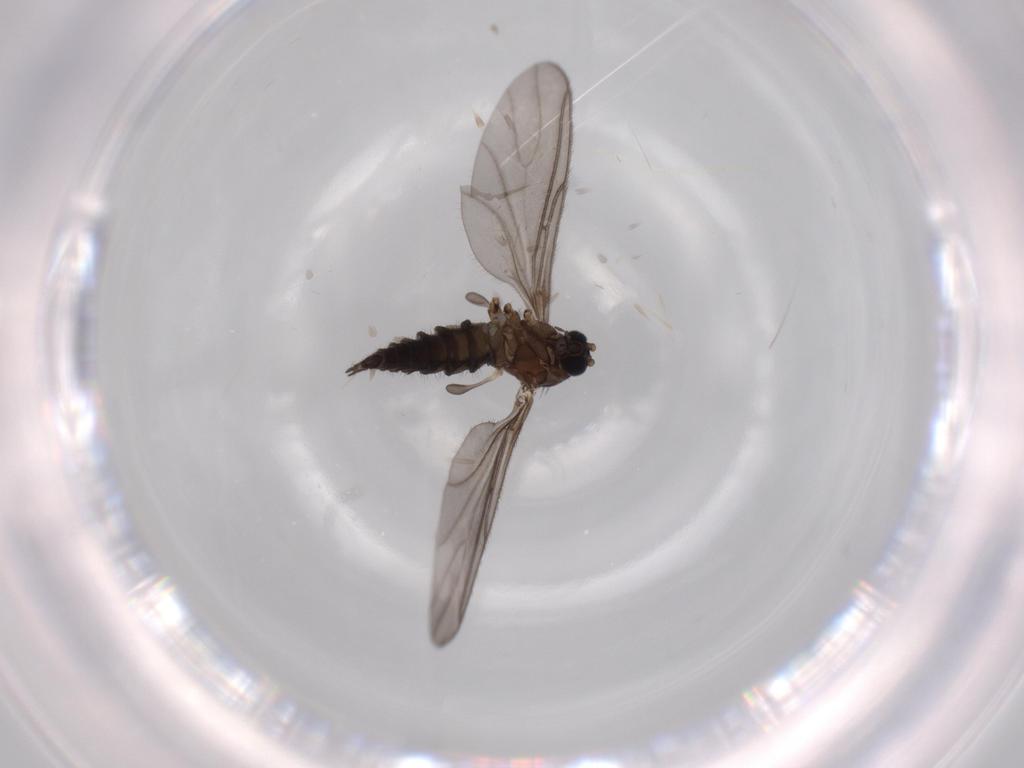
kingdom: Animalia
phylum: Arthropoda
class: Insecta
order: Diptera
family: Sciaridae
